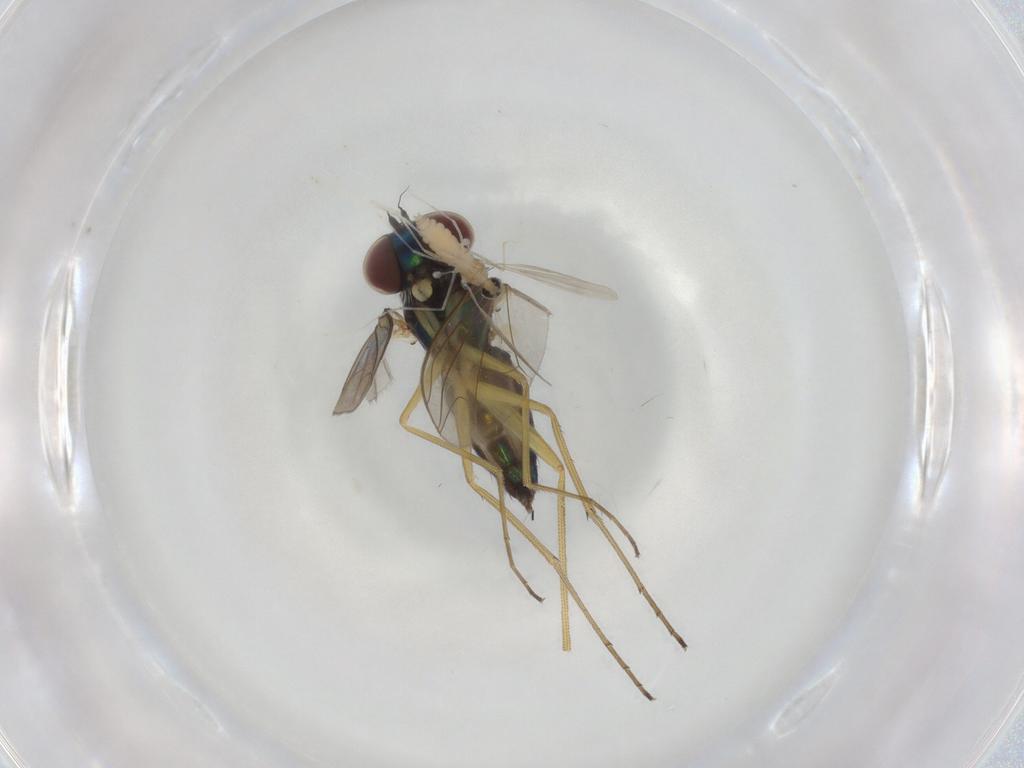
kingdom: Animalia
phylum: Arthropoda
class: Insecta
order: Diptera
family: Dolichopodidae
